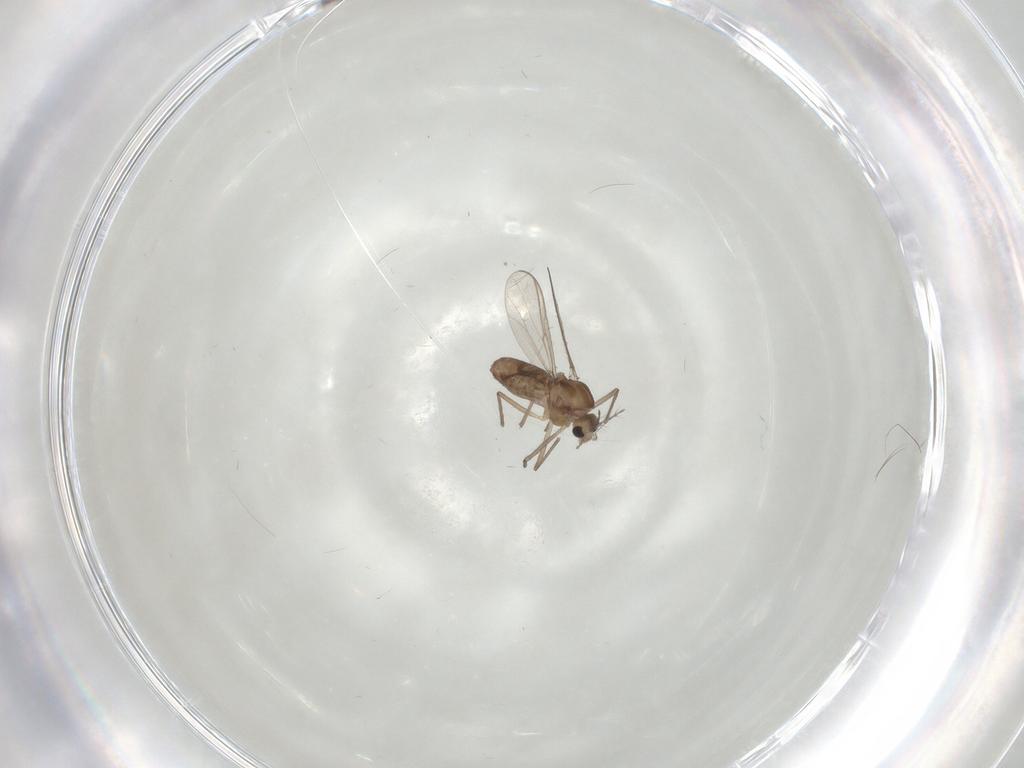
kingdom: Animalia
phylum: Arthropoda
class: Insecta
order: Diptera
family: Chironomidae
